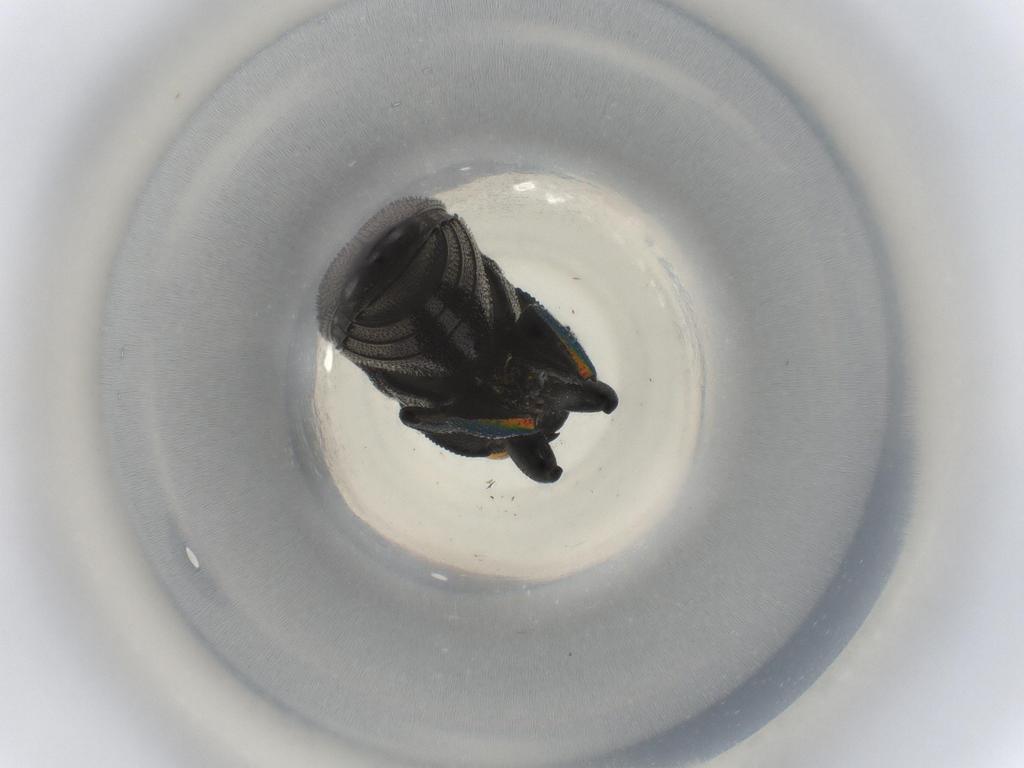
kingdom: Animalia
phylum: Arthropoda
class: Insecta
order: Coleoptera
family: Buprestidae
